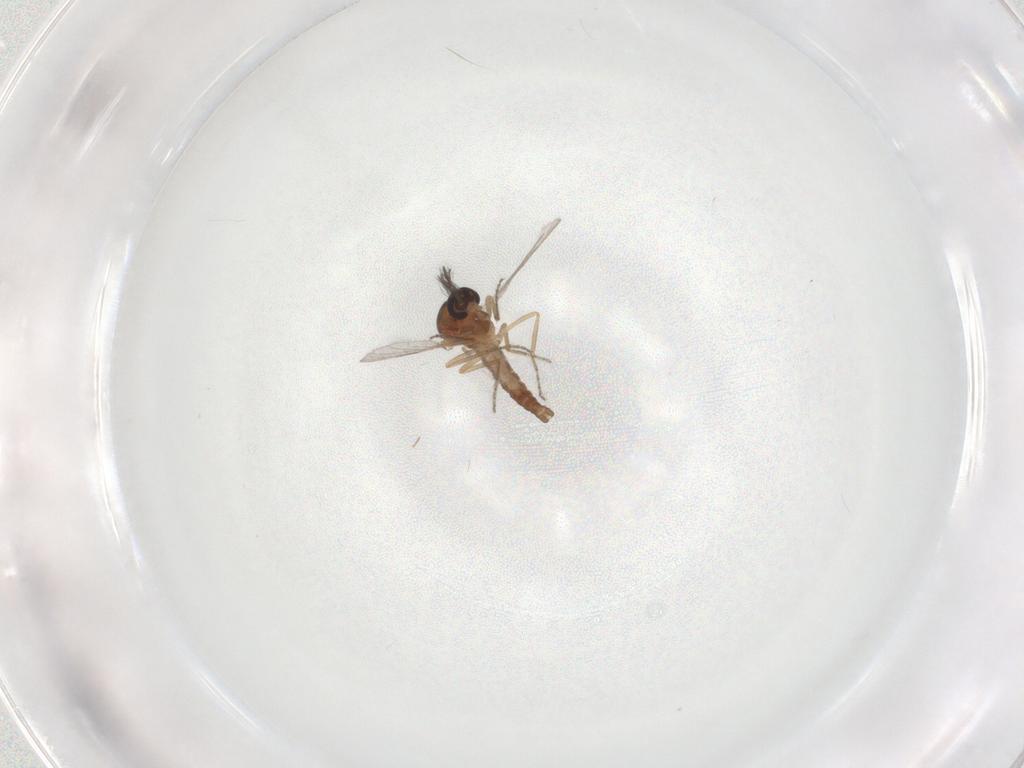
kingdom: Animalia
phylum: Arthropoda
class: Insecta
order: Diptera
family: Ceratopogonidae
